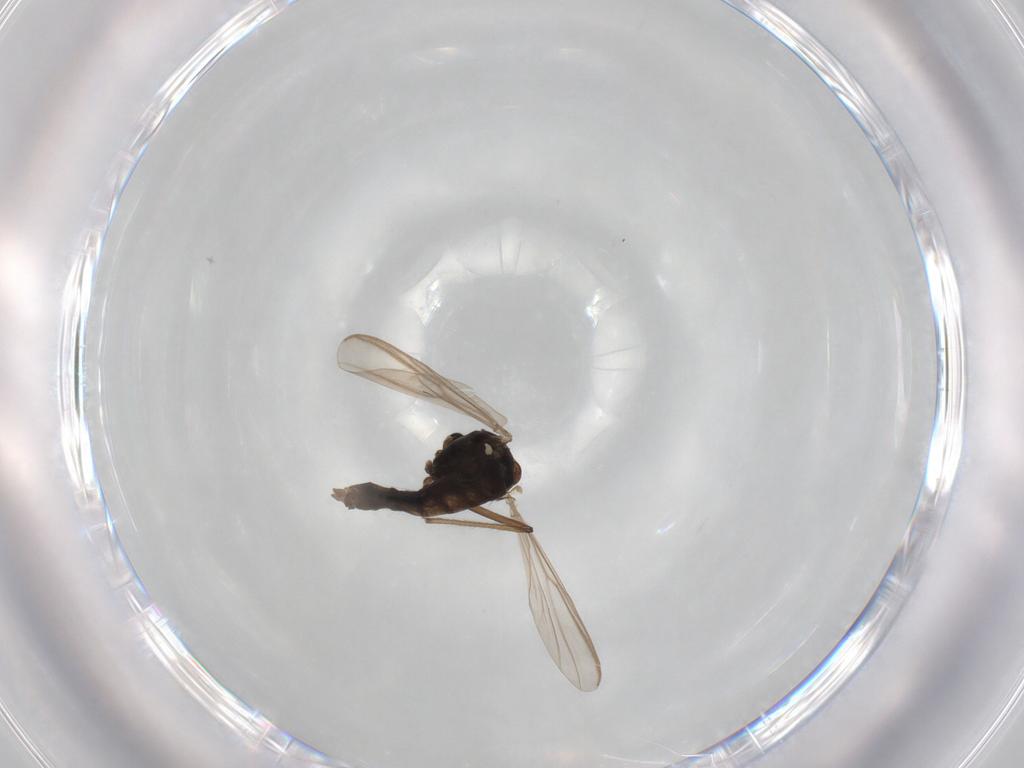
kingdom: Animalia
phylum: Arthropoda
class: Insecta
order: Diptera
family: Chironomidae
